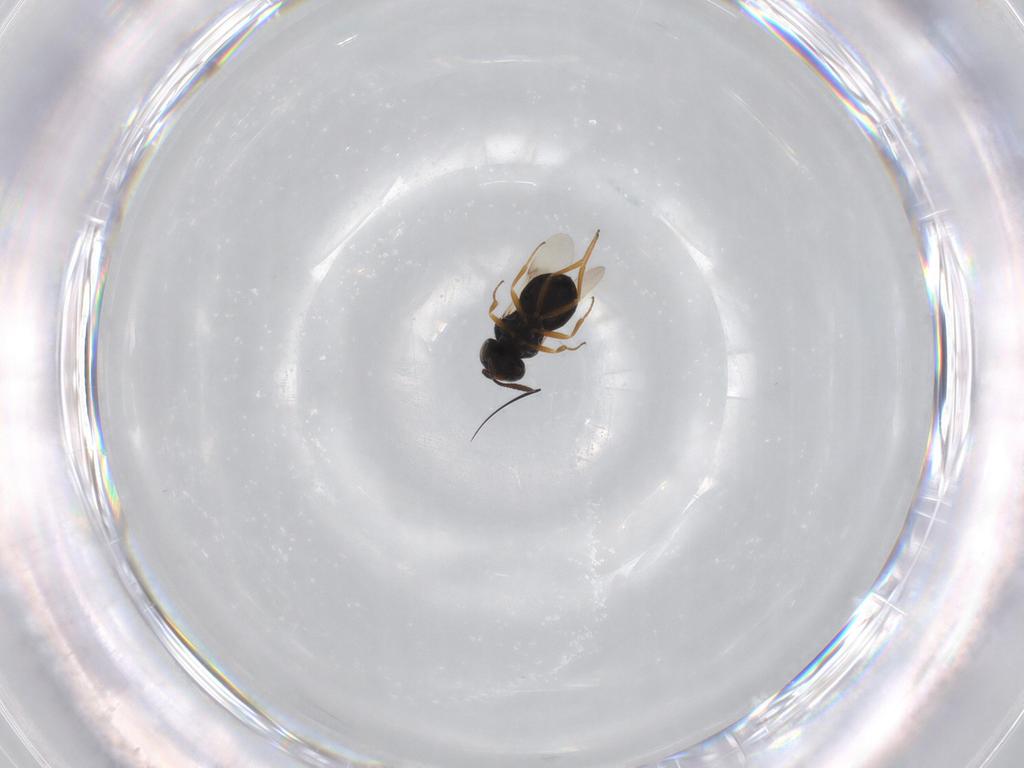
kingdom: Animalia
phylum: Arthropoda
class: Insecta
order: Hymenoptera
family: Scelionidae
